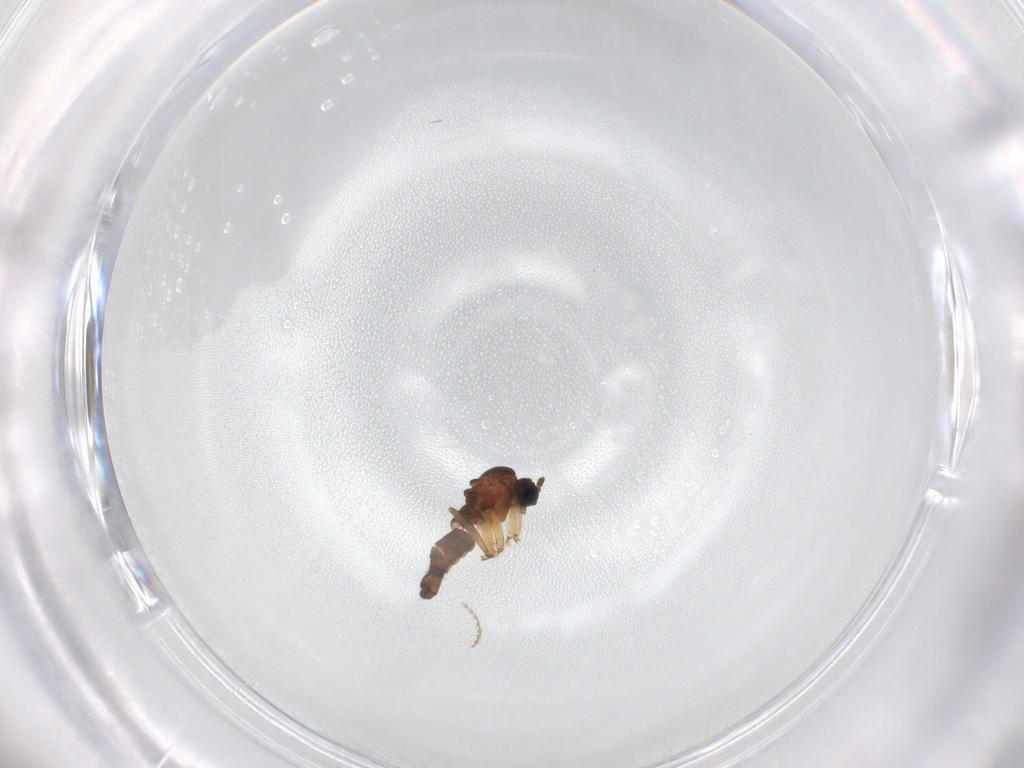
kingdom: Animalia
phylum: Arthropoda
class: Insecta
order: Diptera
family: Sciaridae
